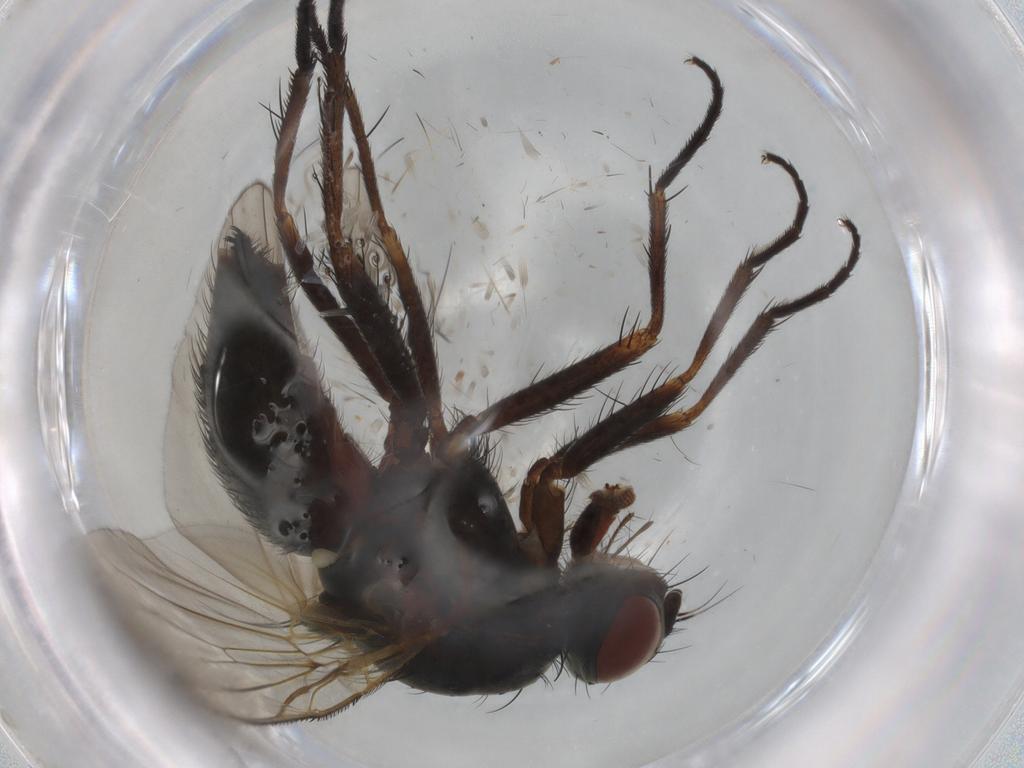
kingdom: Animalia
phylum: Arthropoda
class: Insecta
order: Diptera
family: Anthomyiidae
